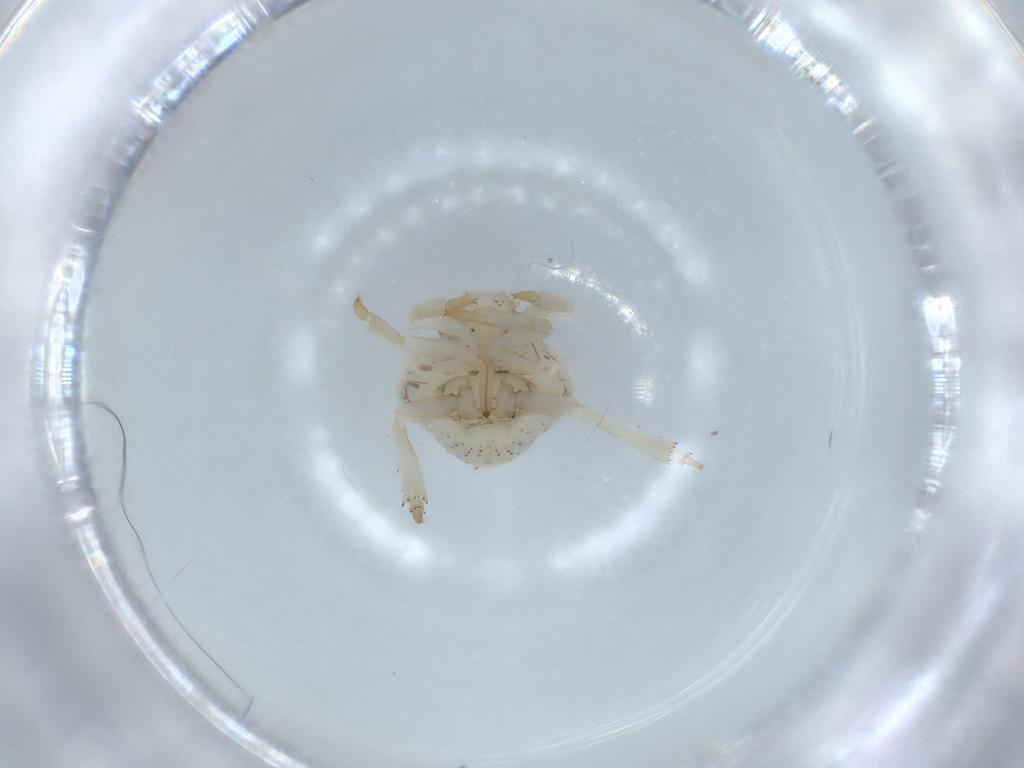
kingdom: Animalia
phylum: Arthropoda
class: Insecta
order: Hemiptera
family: Acanaloniidae
